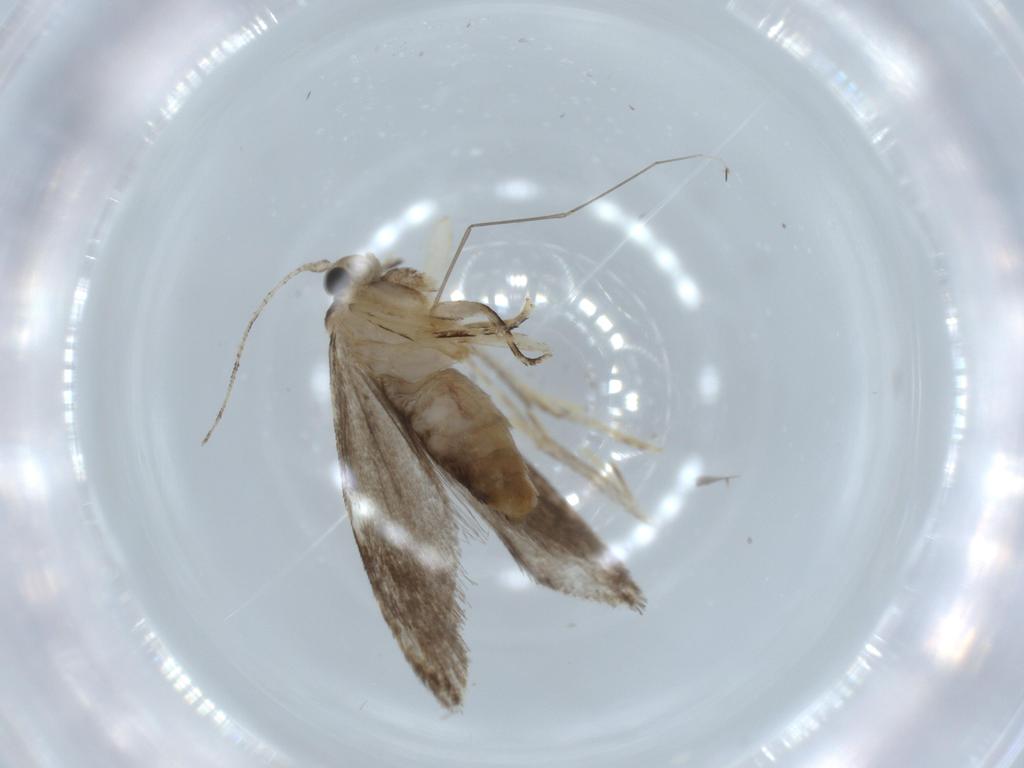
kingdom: Animalia
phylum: Arthropoda
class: Insecta
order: Lepidoptera
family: Tineidae
